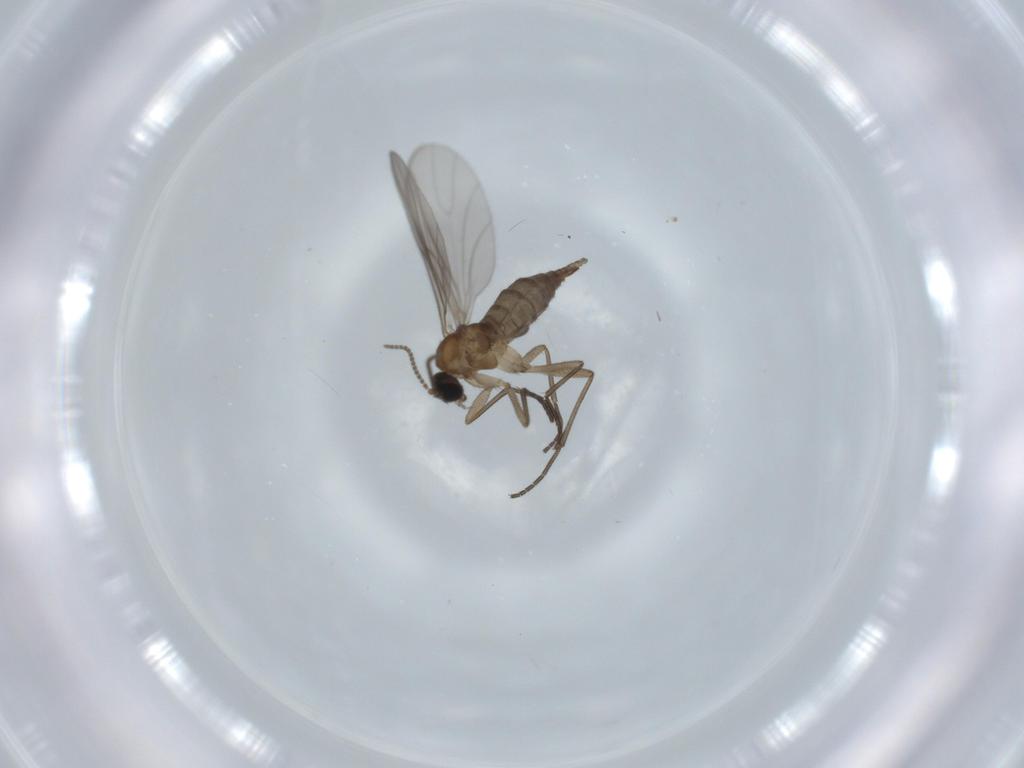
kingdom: Animalia
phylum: Arthropoda
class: Insecta
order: Diptera
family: Sciaridae
